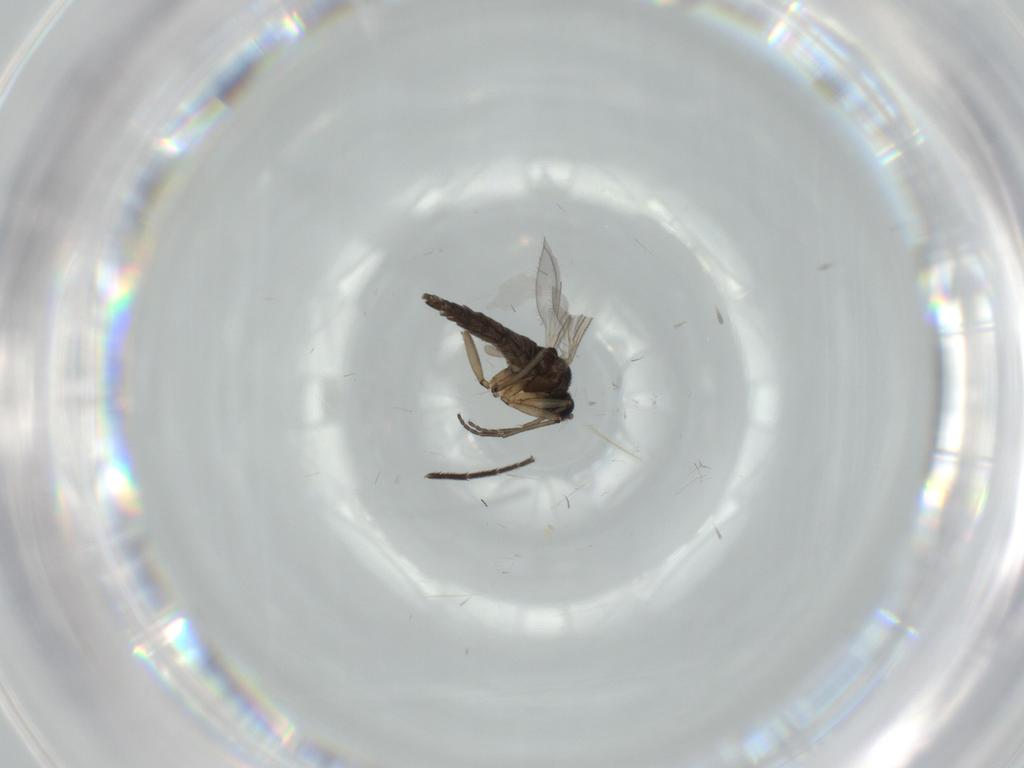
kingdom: Animalia
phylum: Arthropoda
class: Insecta
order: Diptera
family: Sciaridae
